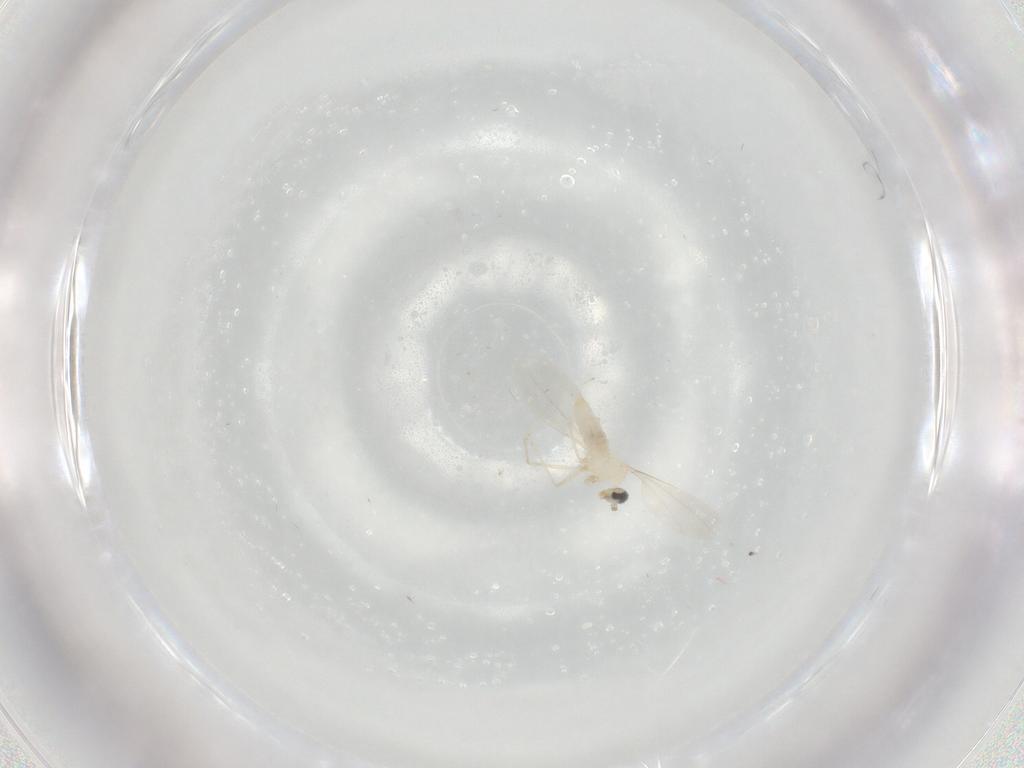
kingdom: Animalia
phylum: Arthropoda
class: Insecta
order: Diptera
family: Cecidomyiidae
